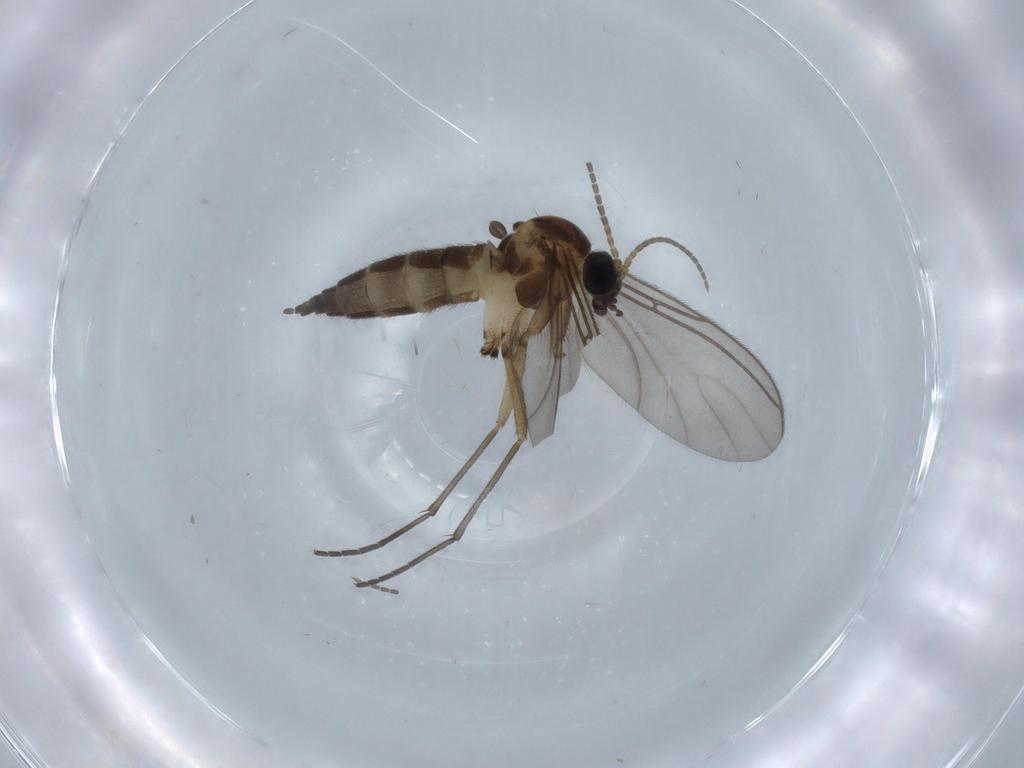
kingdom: Animalia
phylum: Arthropoda
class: Insecta
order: Diptera
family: Sciaridae
